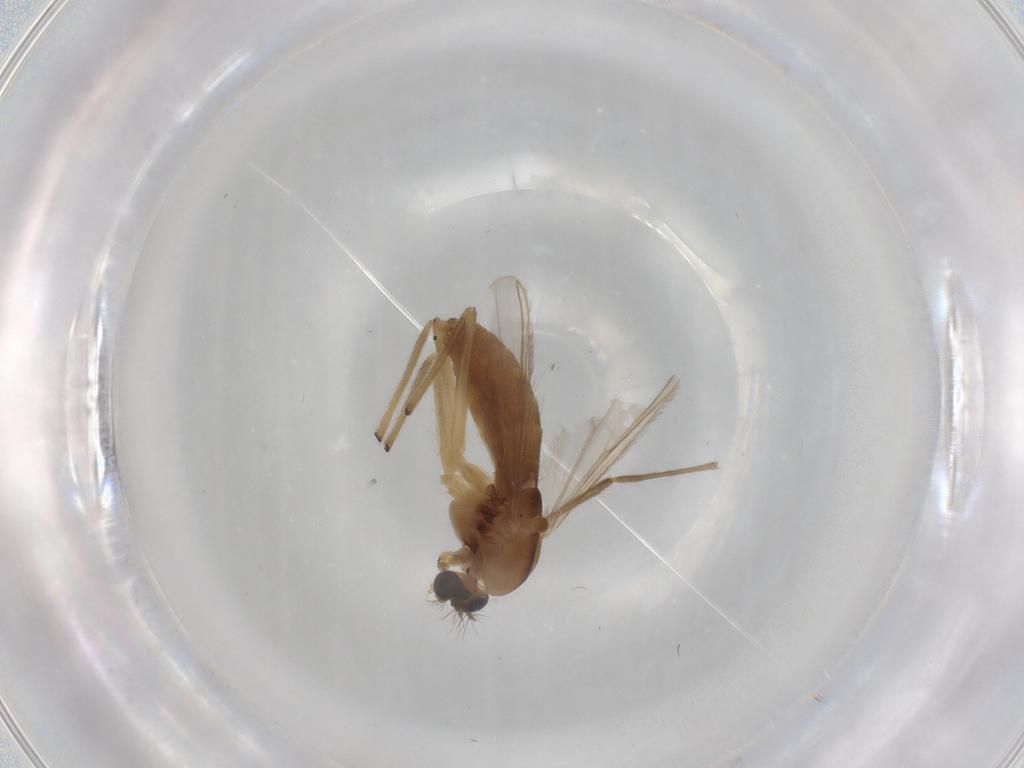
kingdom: Animalia
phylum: Arthropoda
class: Insecta
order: Diptera
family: Chironomidae
